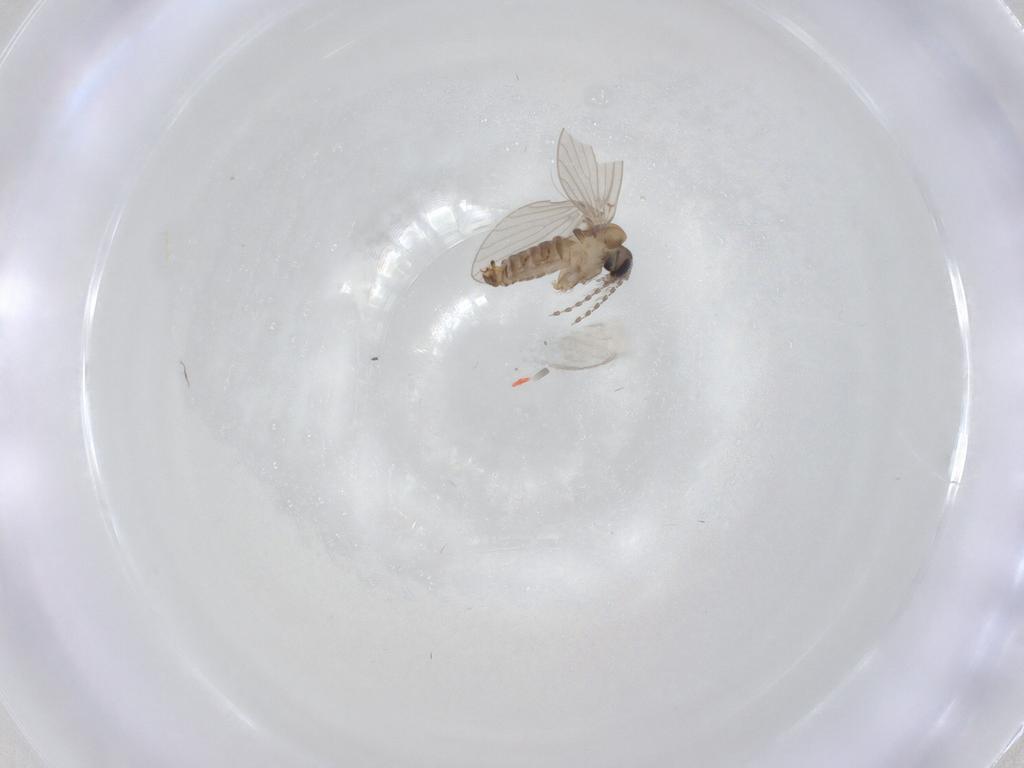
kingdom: Animalia
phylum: Arthropoda
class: Insecta
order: Diptera
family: Psychodidae
